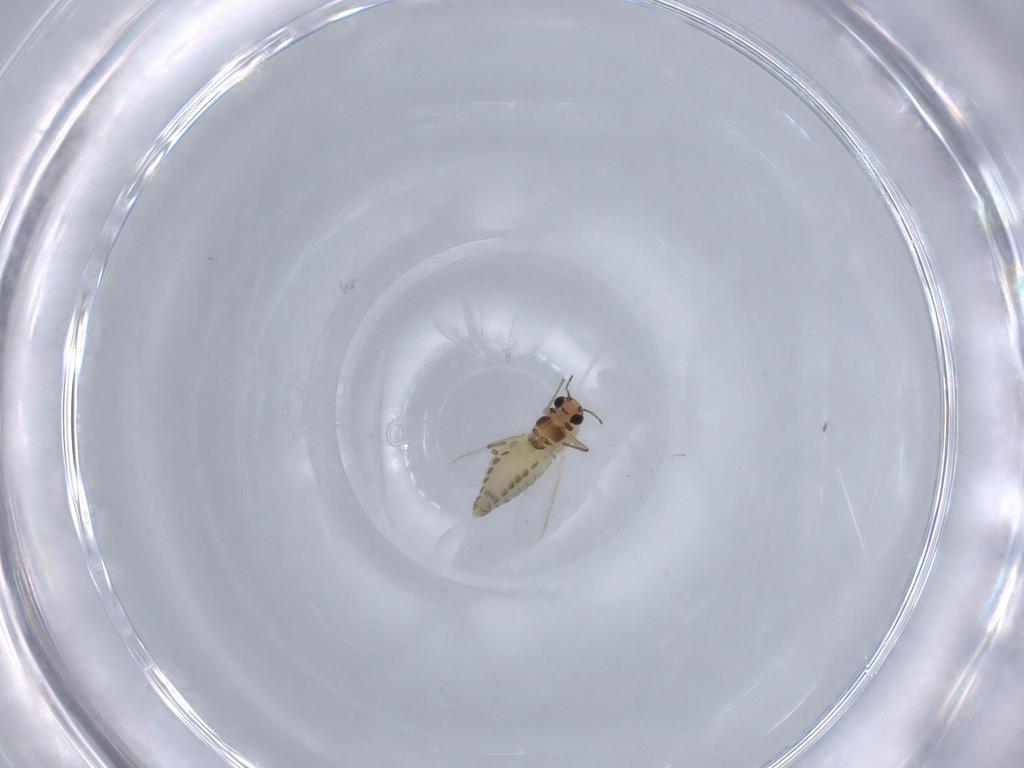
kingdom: Animalia
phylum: Arthropoda
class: Insecta
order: Diptera
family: Chironomidae
